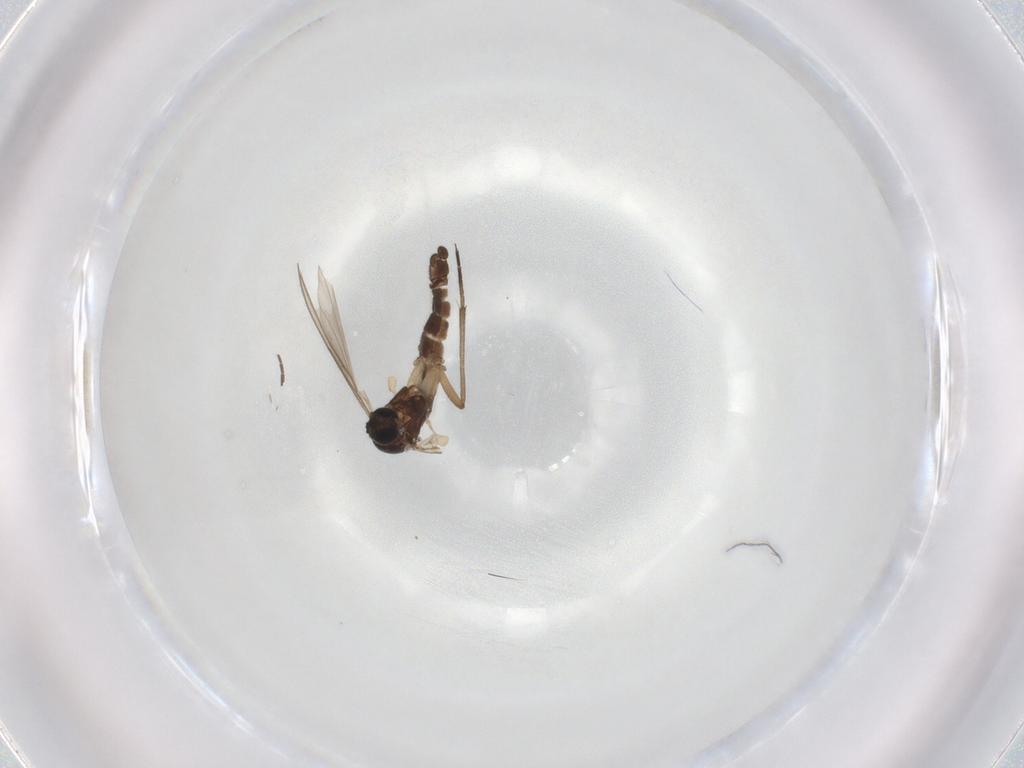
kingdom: Animalia
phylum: Arthropoda
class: Insecta
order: Diptera
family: Sciaridae
